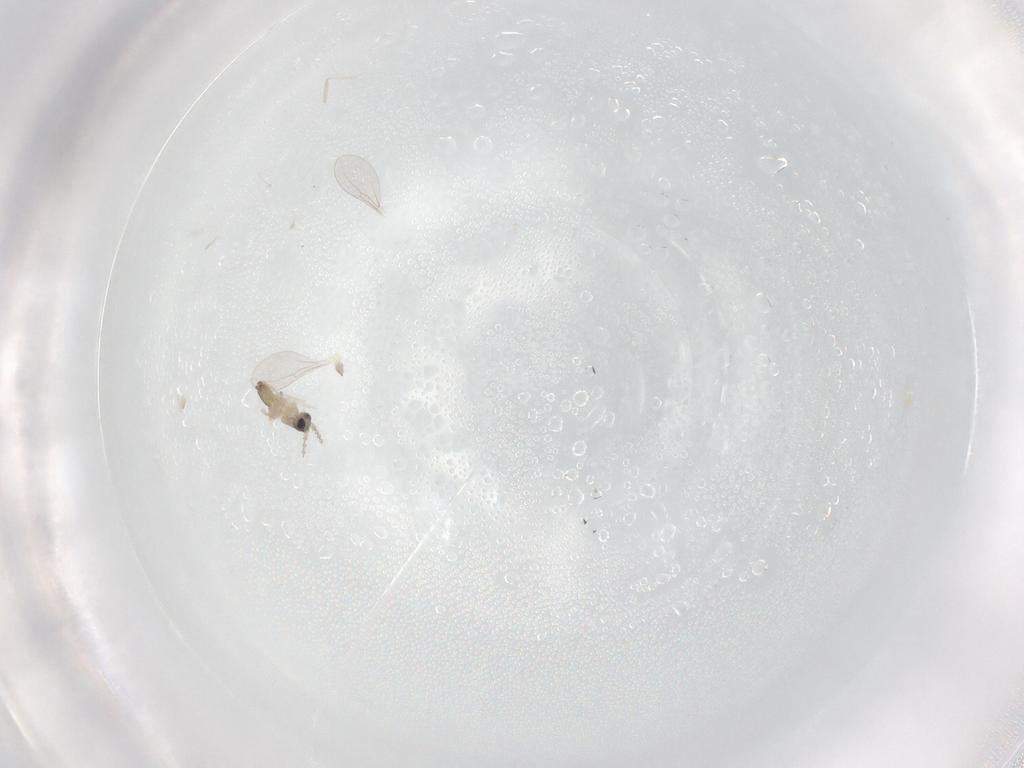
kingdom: Animalia
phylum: Arthropoda
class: Insecta
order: Diptera
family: Cecidomyiidae
